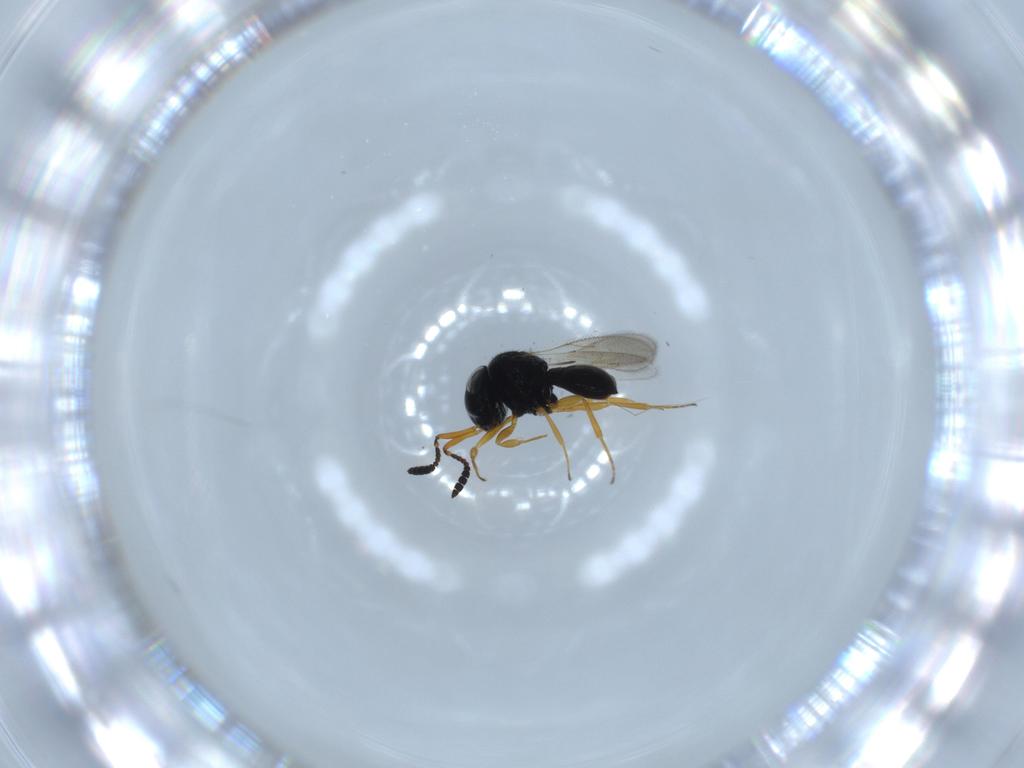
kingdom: Animalia
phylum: Arthropoda
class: Insecta
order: Hymenoptera
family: Scelionidae
